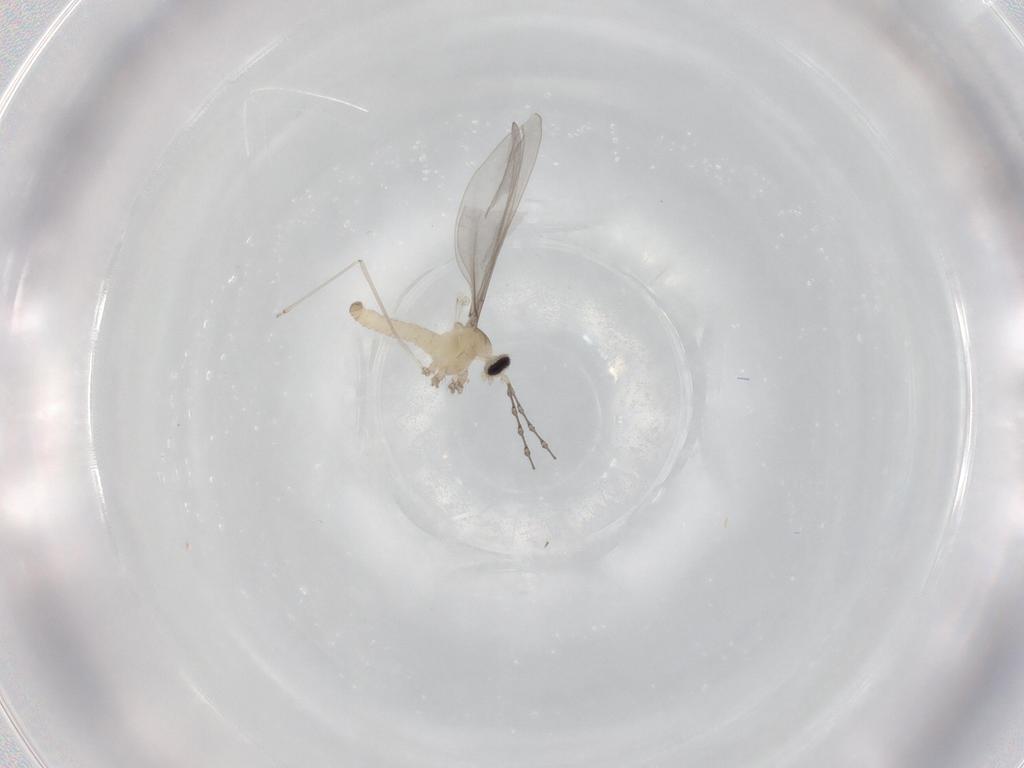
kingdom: Animalia
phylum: Arthropoda
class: Insecta
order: Diptera
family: Cecidomyiidae
